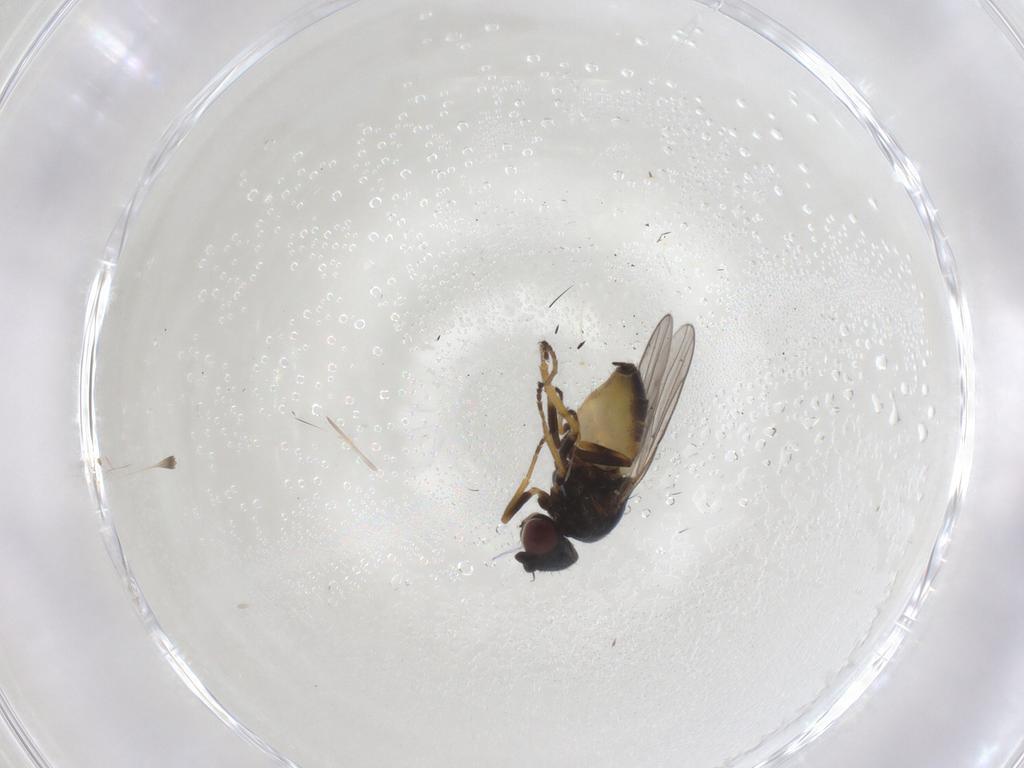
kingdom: Animalia
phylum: Arthropoda
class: Insecta
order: Diptera
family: Chloropidae
